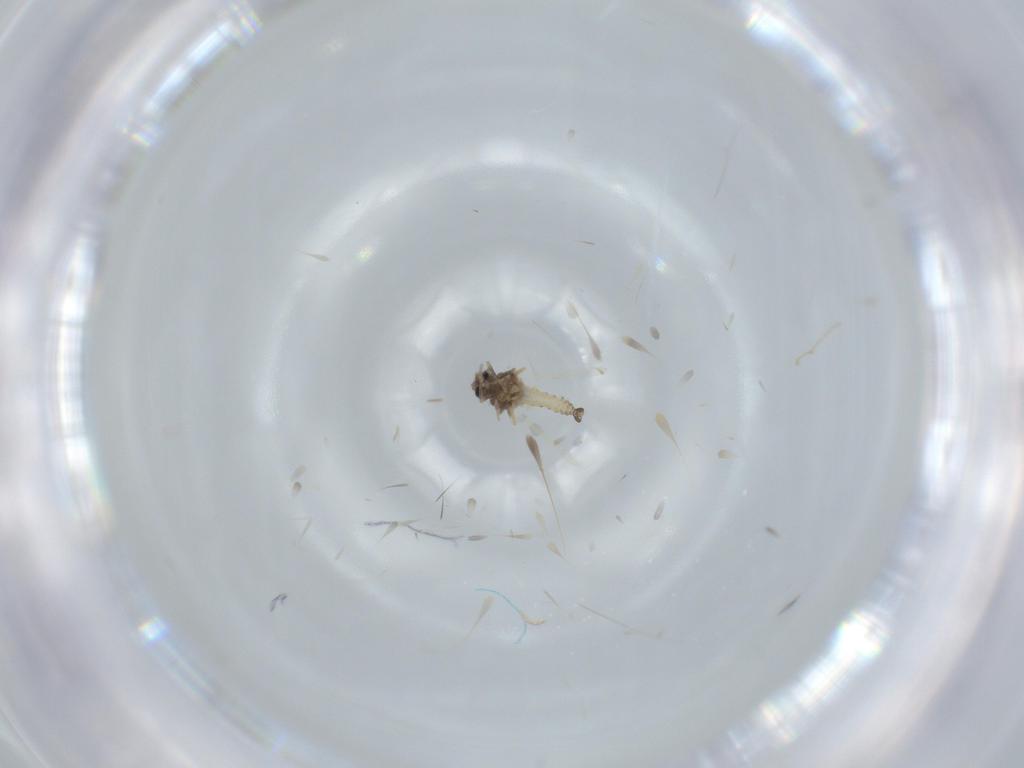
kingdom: Animalia
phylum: Arthropoda
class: Insecta
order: Diptera
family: Ceratopogonidae
